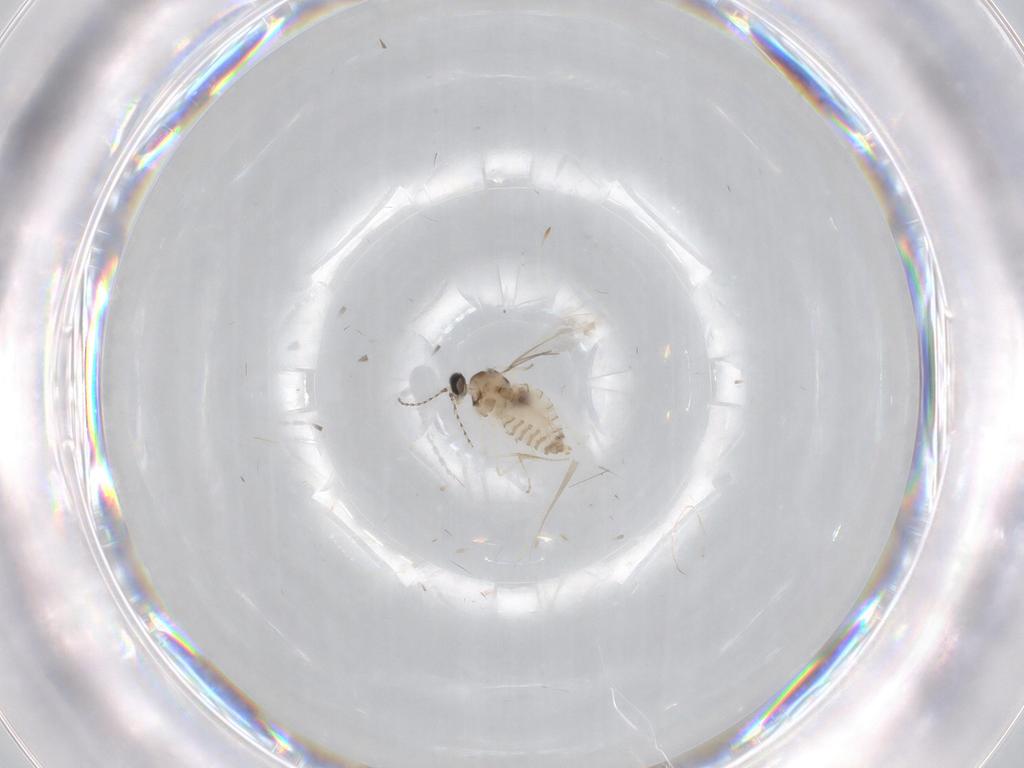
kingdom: Animalia
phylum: Arthropoda
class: Insecta
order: Diptera
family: Cecidomyiidae
